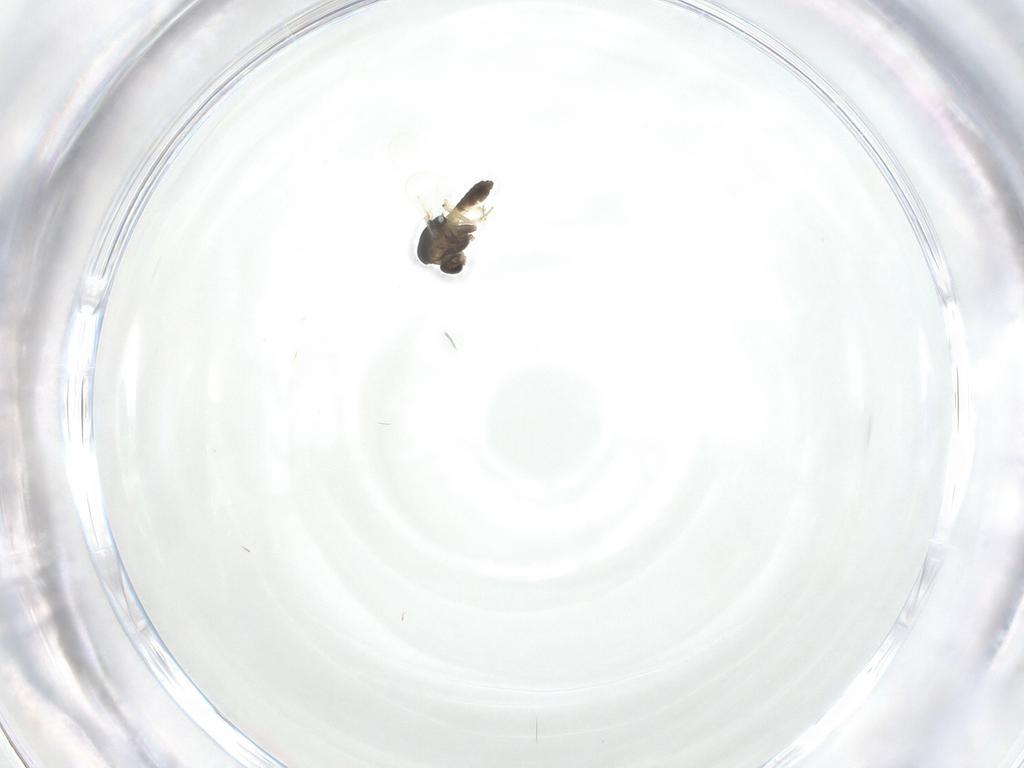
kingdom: Animalia
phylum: Arthropoda
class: Insecta
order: Diptera
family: Chironomidae
